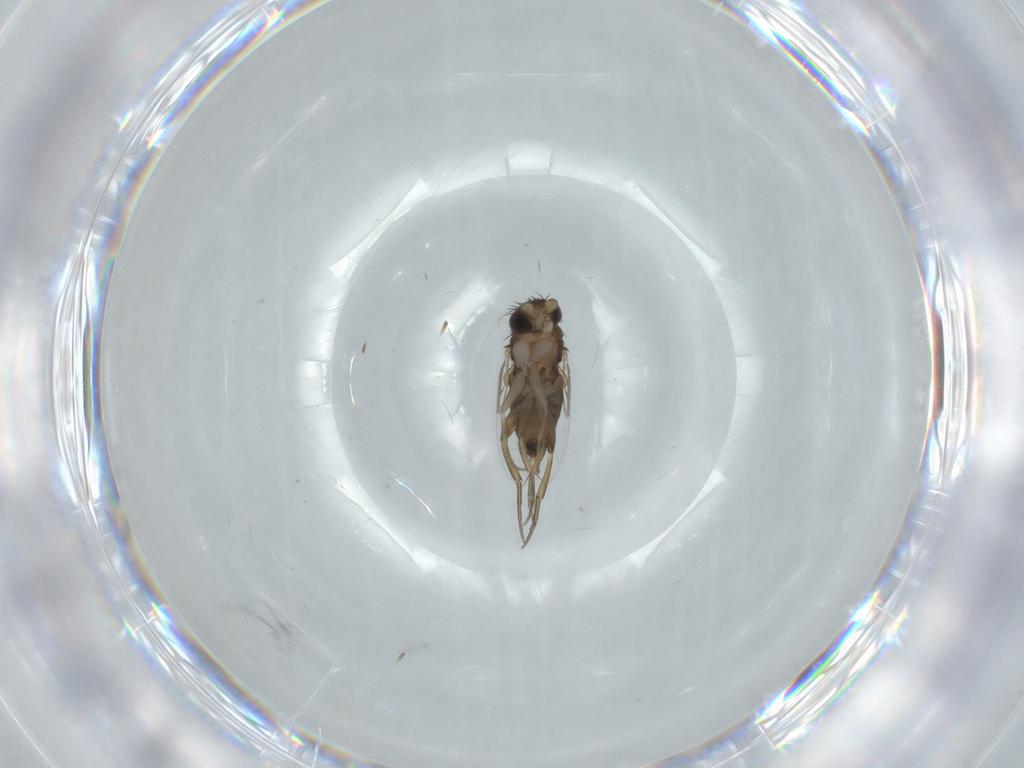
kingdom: Animalia
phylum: Arthropoda
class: Insecta
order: Diptera
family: Phoridae
